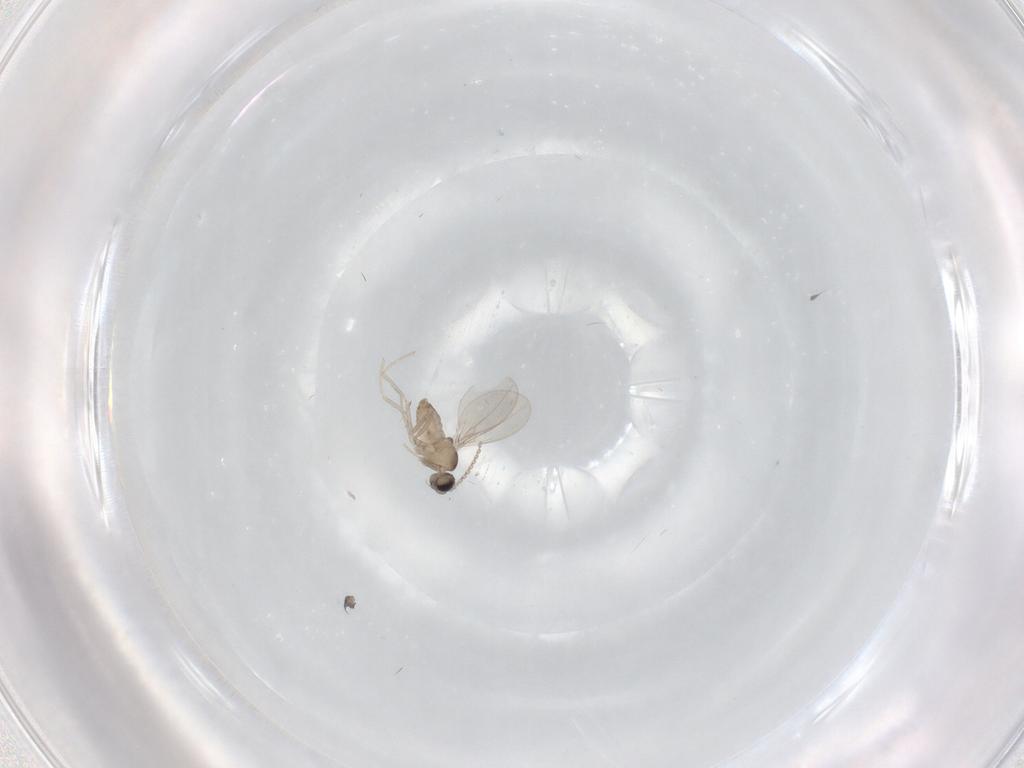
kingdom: Animalia
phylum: Arthropoda
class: Insecta
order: Diptera
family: Cecidomyiidae
